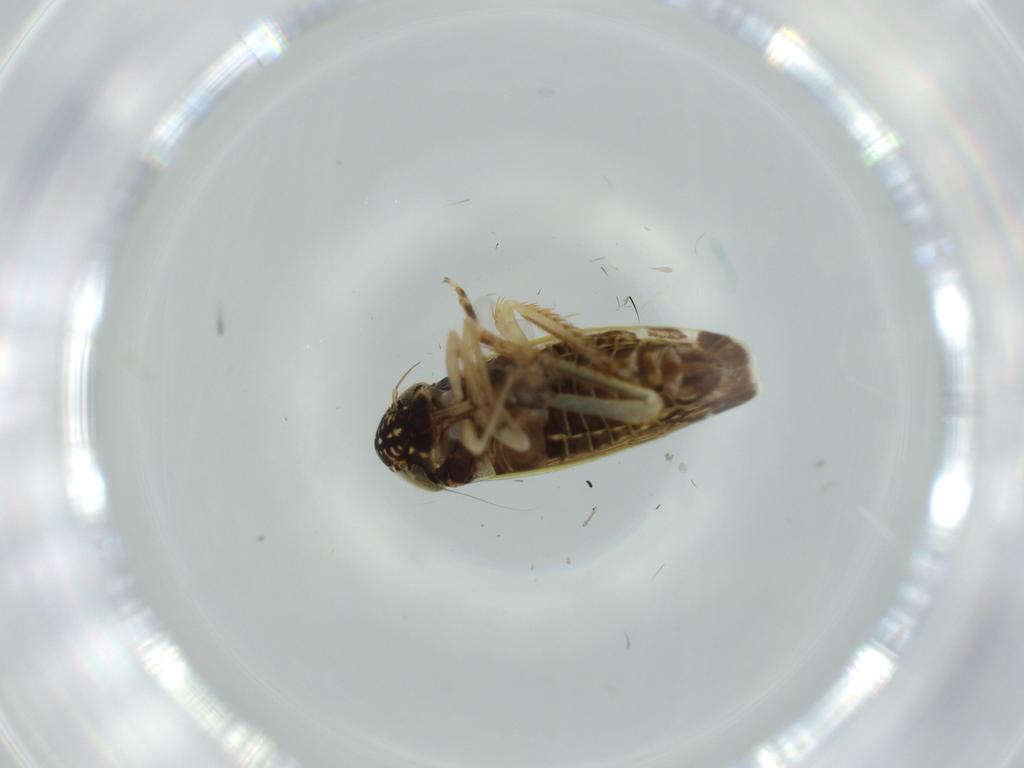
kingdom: Animalia
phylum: Arthropoda
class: Insecta
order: Hemiptera
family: Cicadellidae
